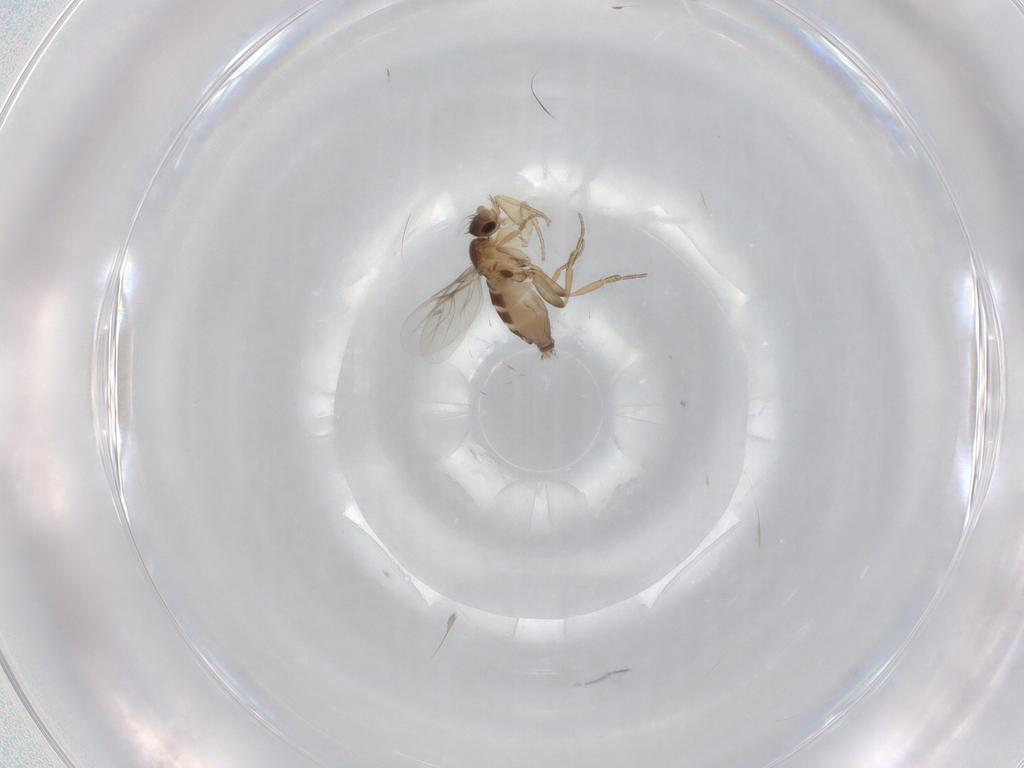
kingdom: Animalia
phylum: Arthropoda
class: Insecta
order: Diptera
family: Phoridae
